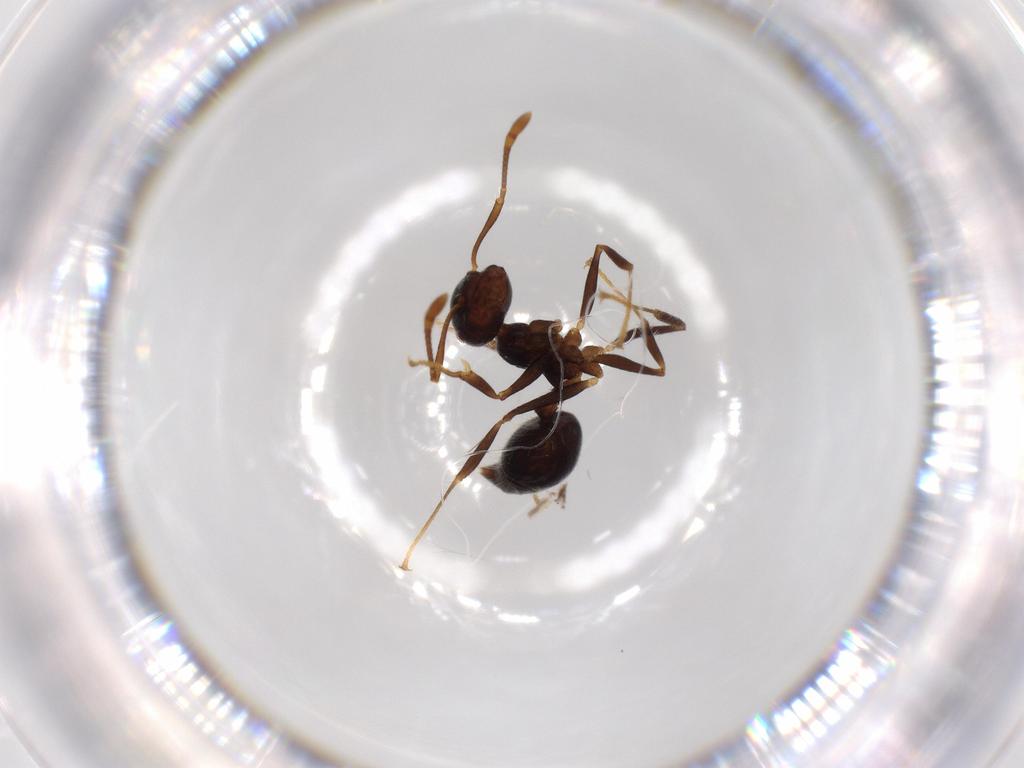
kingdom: Animalia
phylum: Arthropoda
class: Insecta
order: Hymenoptera
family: Formicidae
